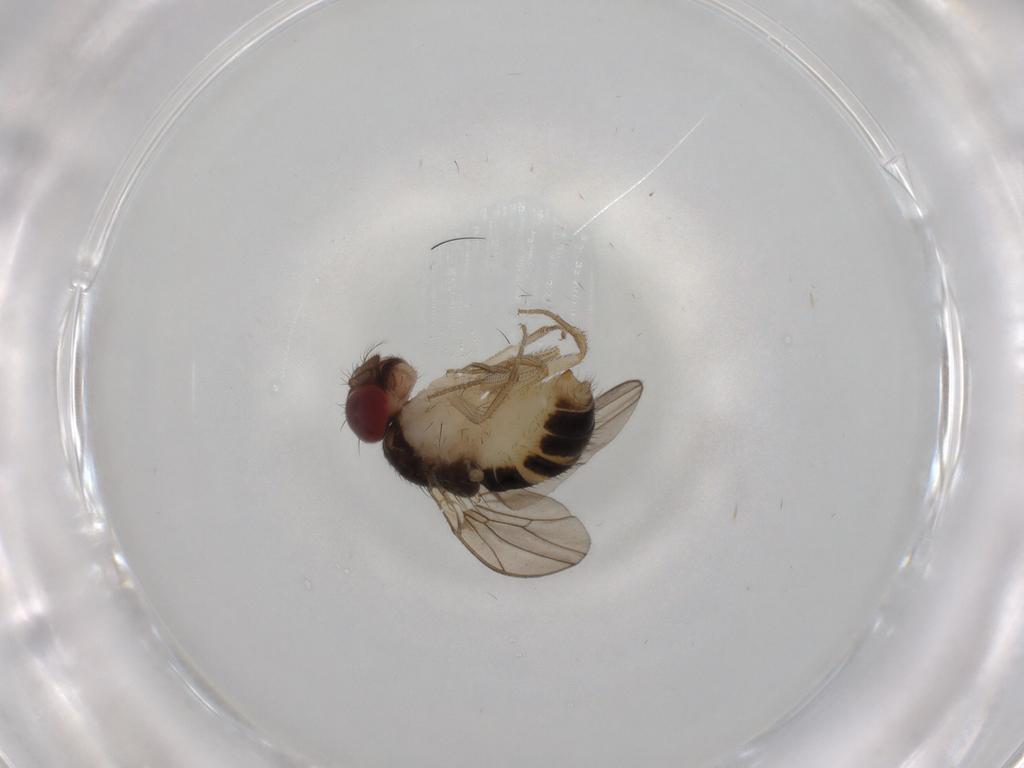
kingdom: Animalia
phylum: Arthropoda
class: Insecta
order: Diptera
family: Drosophilidae
